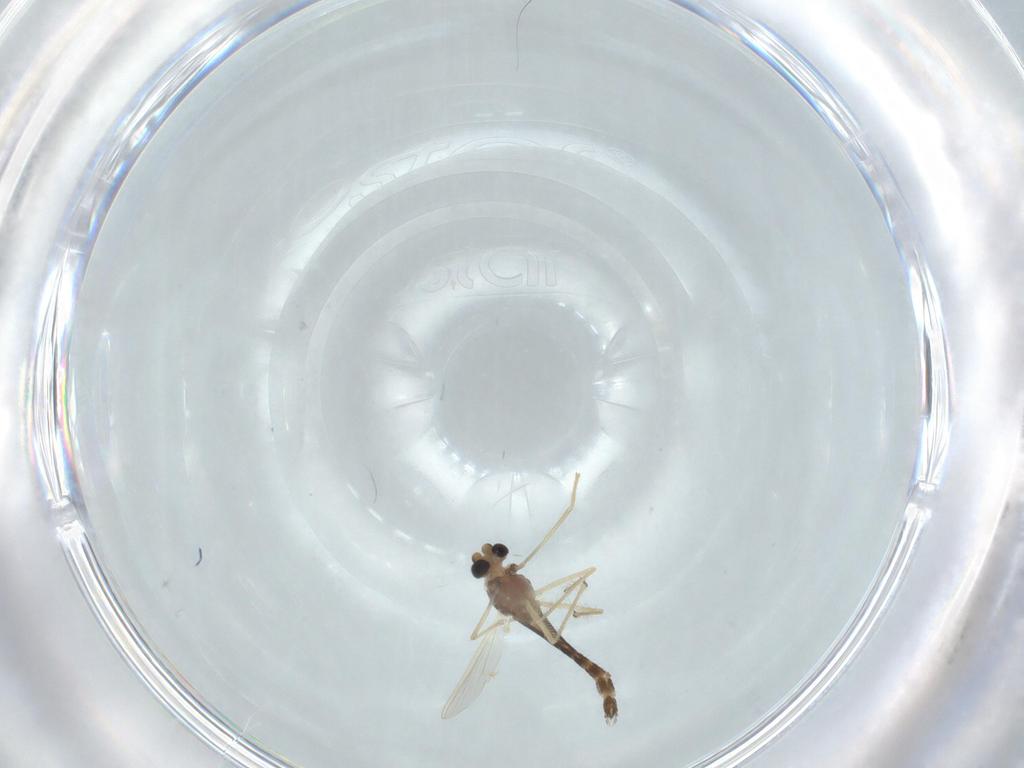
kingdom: Animalia
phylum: Arthropoda
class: Insecta
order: Diptera
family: Chironomidae
